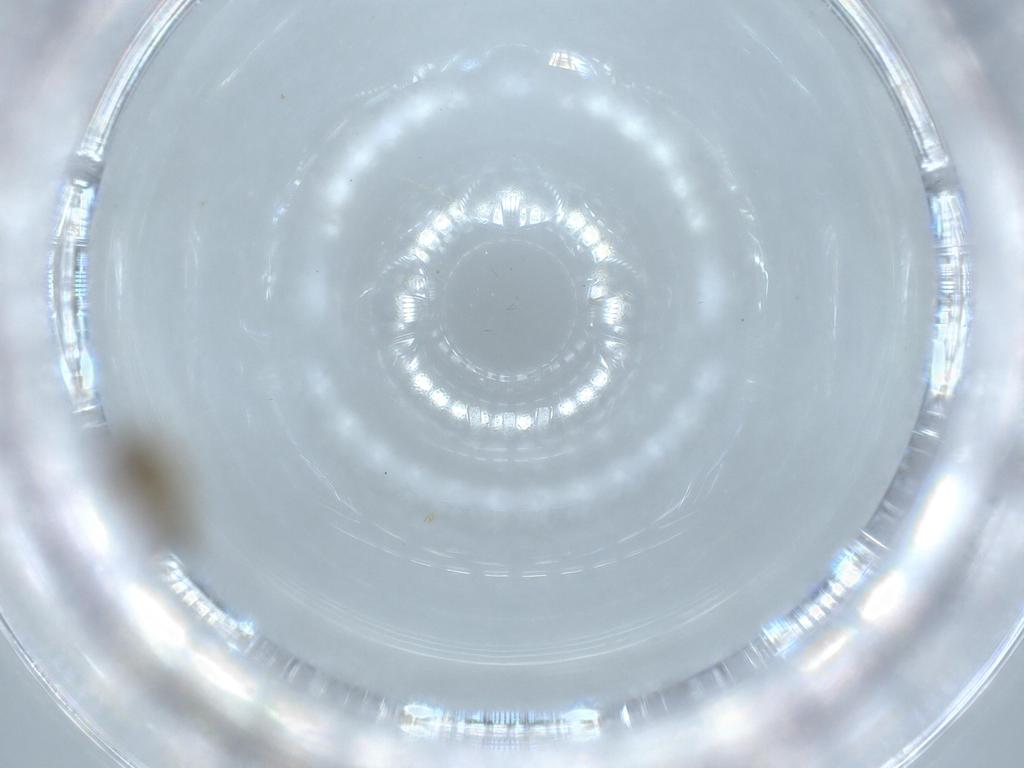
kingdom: Animalia
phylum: Arthropoda
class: Insecta
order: Diptera
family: Chironomidae
